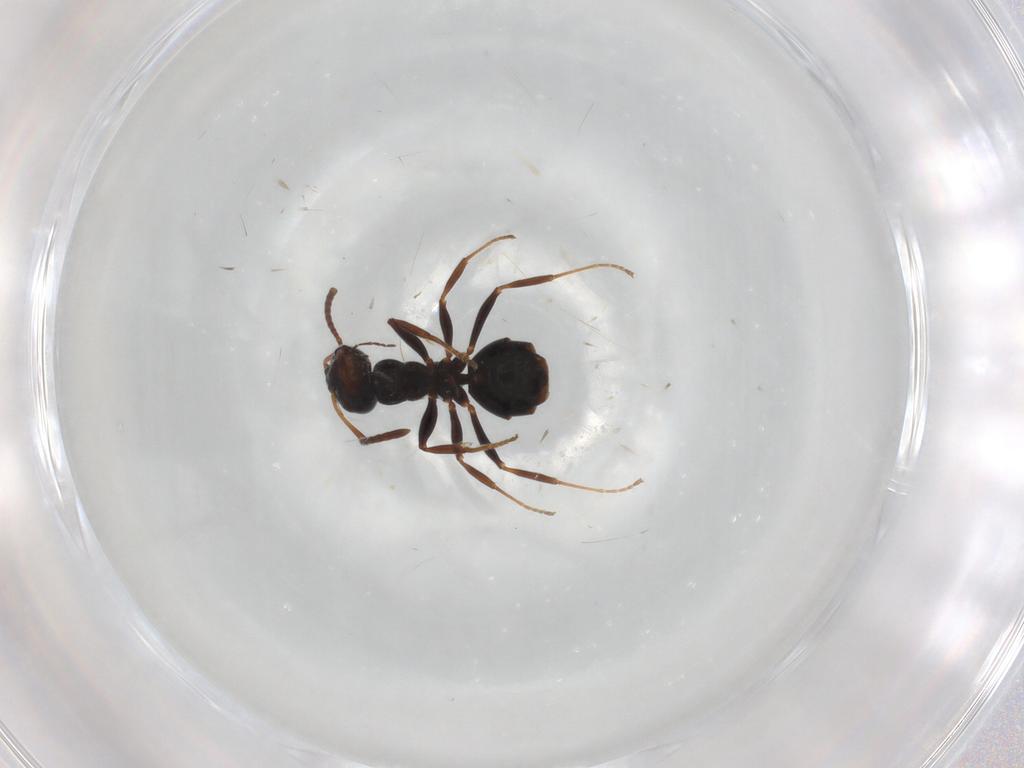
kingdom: Animalia
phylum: Arthropoda
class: Insecta
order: Hymenoptera
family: Formicidae
